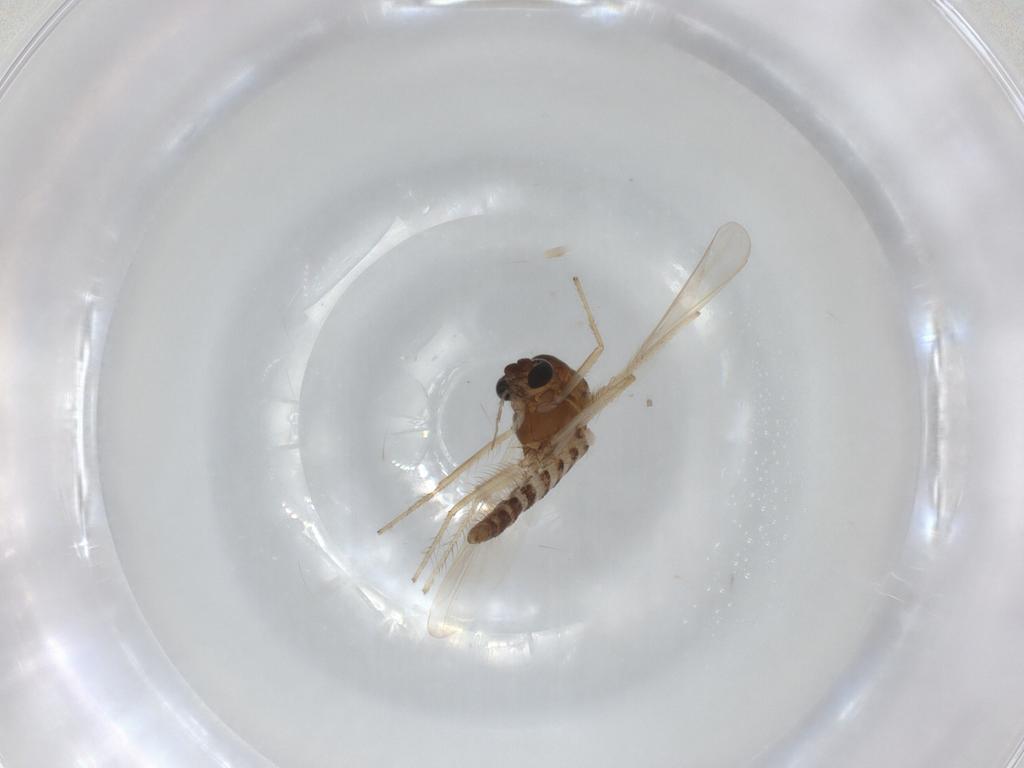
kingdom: Animalia
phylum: Arthropoda
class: Insecta
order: Diptera
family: Chironomidae
